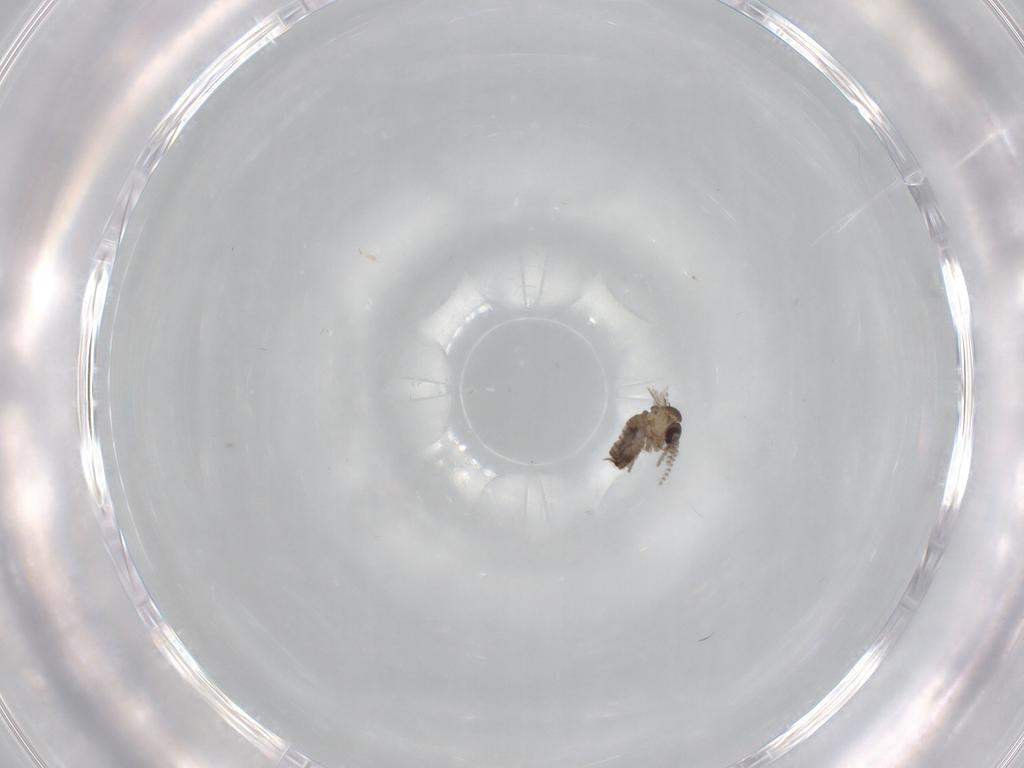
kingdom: Animalia
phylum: Arthropoda
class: Insecta
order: Diptera
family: Psychodidae
